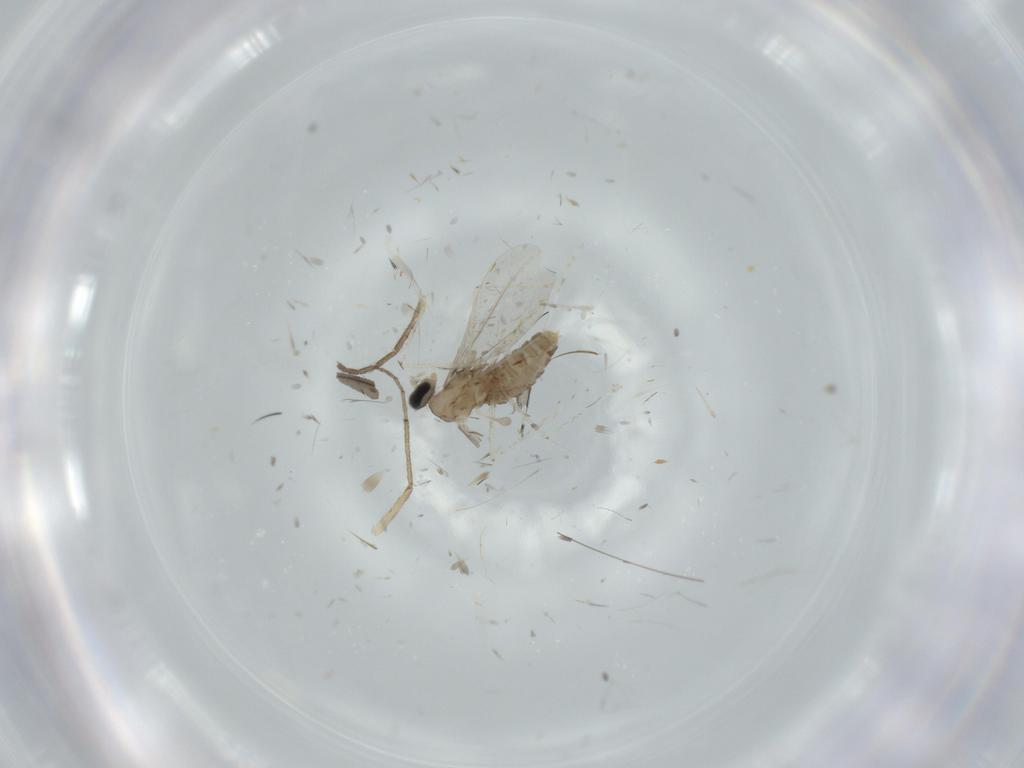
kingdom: Animalia
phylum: Arthropoda
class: Insecta
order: Diptera
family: Cecidomyiidae
